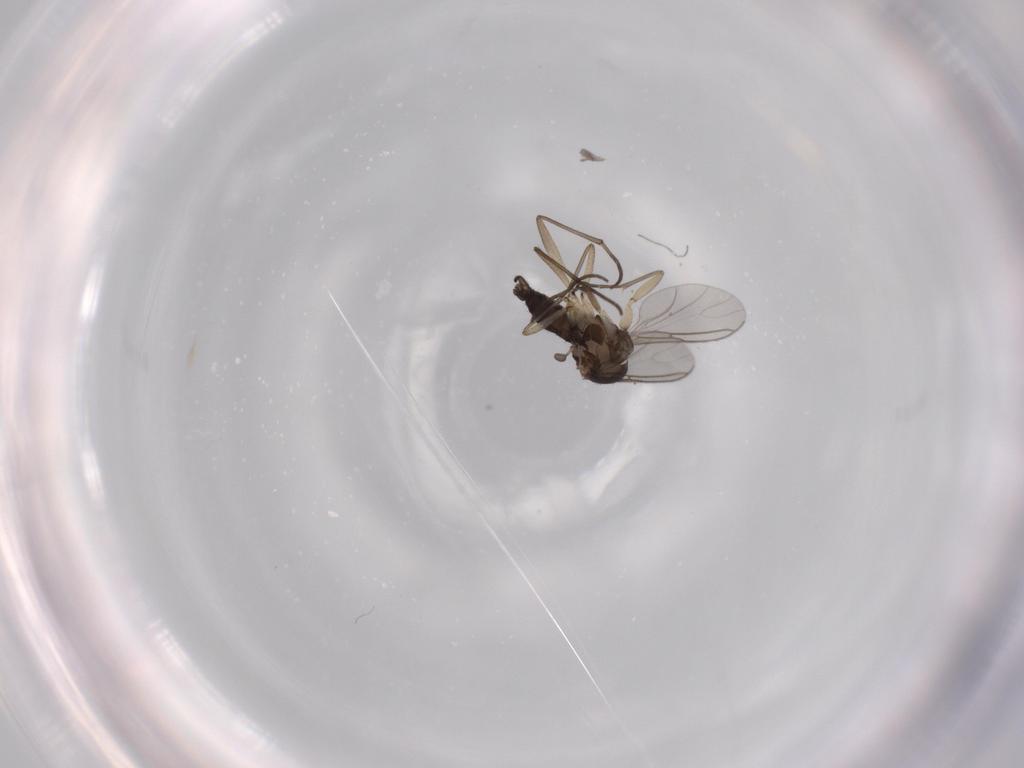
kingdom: Animalia
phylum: Arthropoda
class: Insecta
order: Diptera
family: Sciaridae
